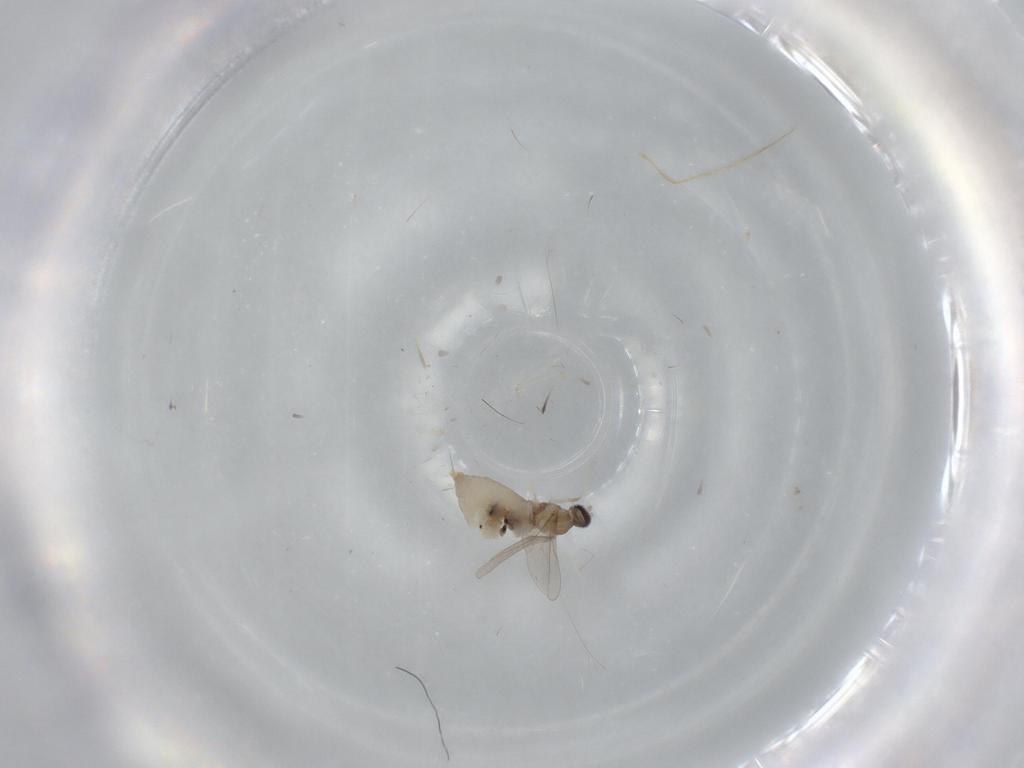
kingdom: Animalia
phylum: Arthropoda
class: Insecta
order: Diptera
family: Cecidomyiidae
